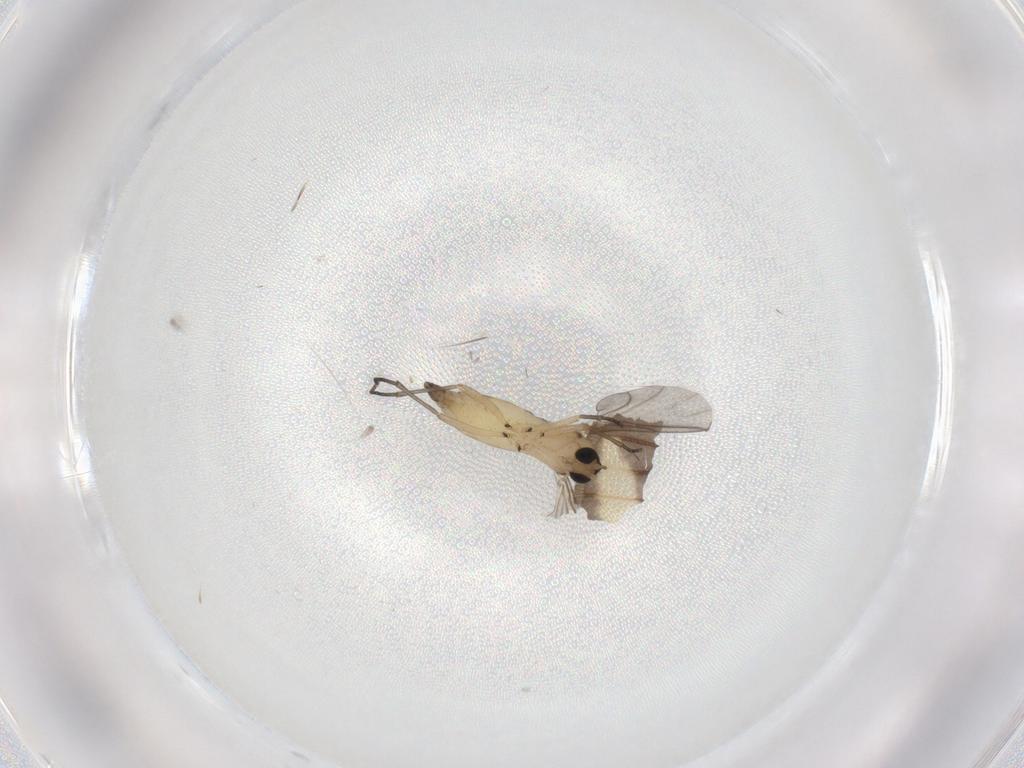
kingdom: Animalia
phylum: Arthropoda
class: Insecta
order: Diptera
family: Cecidomyiidae
